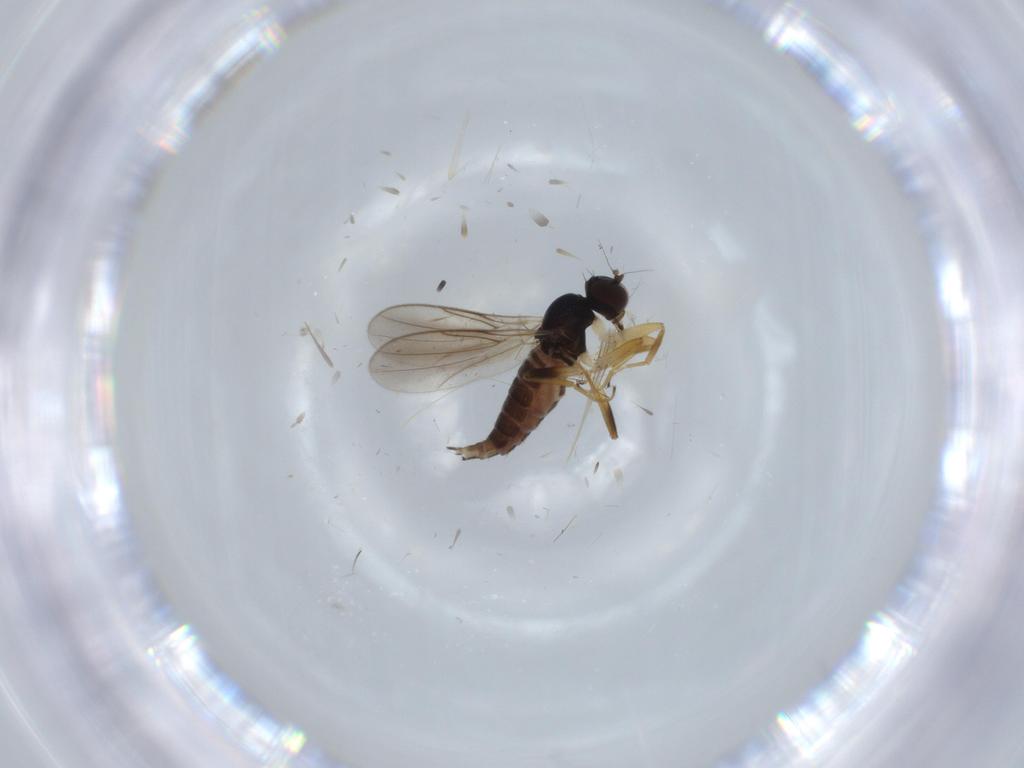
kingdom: Animalia
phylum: Arthropoda
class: Insecta
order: Diptera
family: Hybotidae
